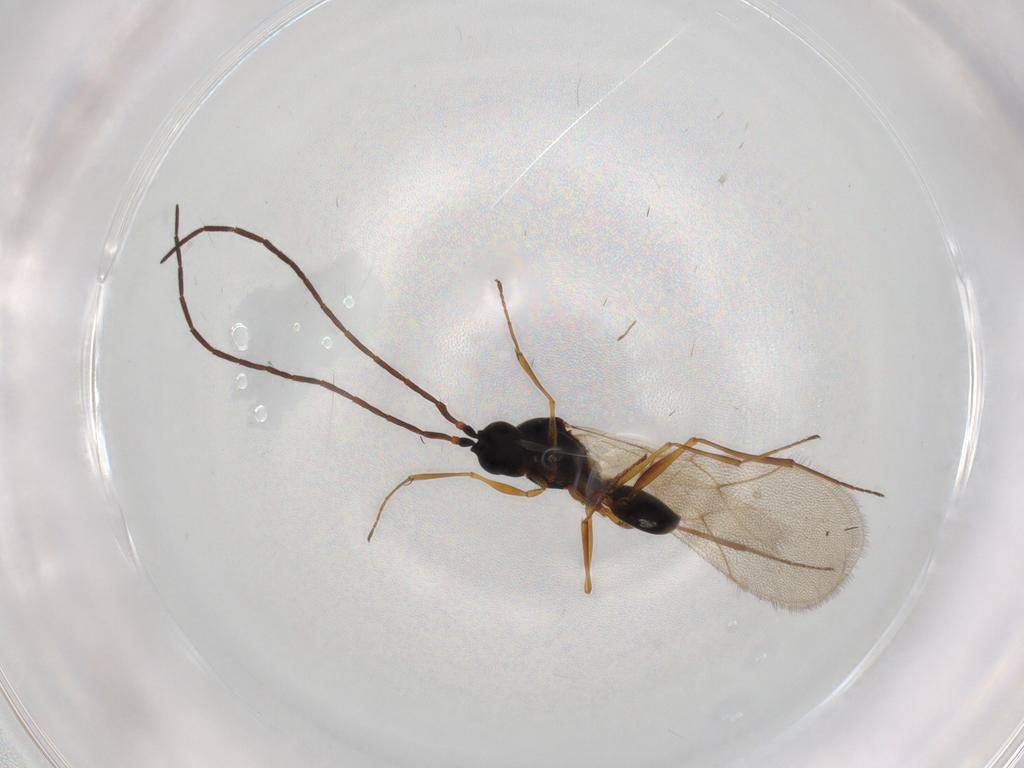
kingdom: Animalia
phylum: Arthropoda
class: Insecta
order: Hymenoptera
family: Figitidae
